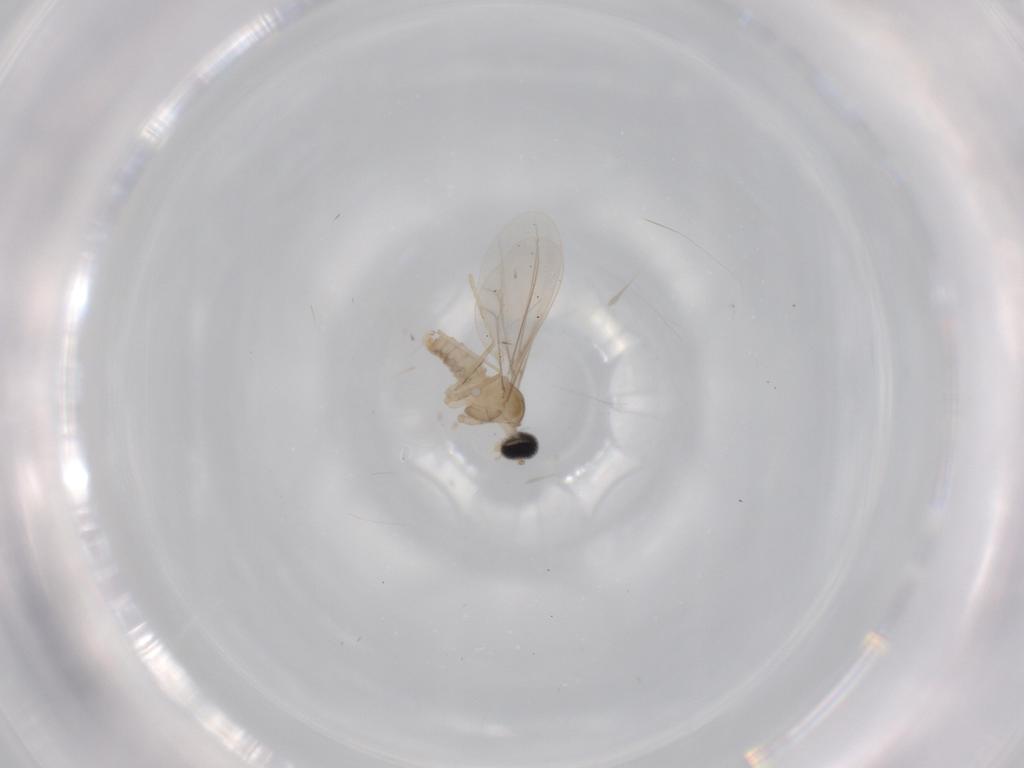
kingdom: Animalia
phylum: Arthropoda
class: Insecta
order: Diptera
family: Cecidomyiidae
